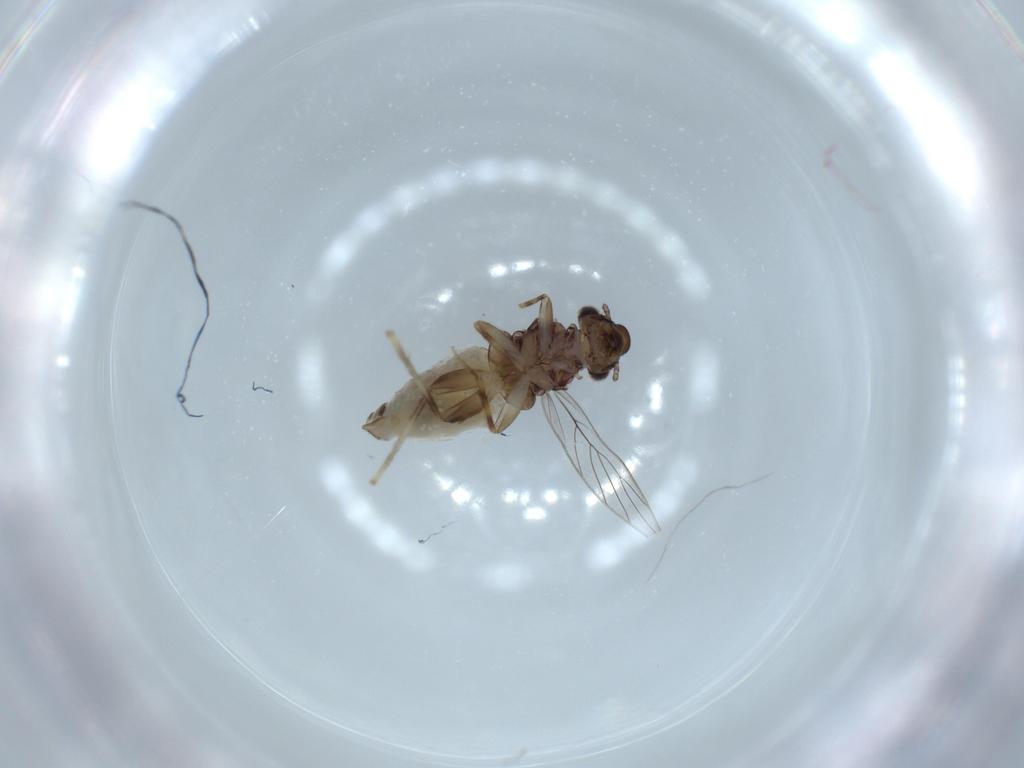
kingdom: Animalia
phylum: Arthropoda
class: Insecta
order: Psocodea
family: Lepidopsocidae
